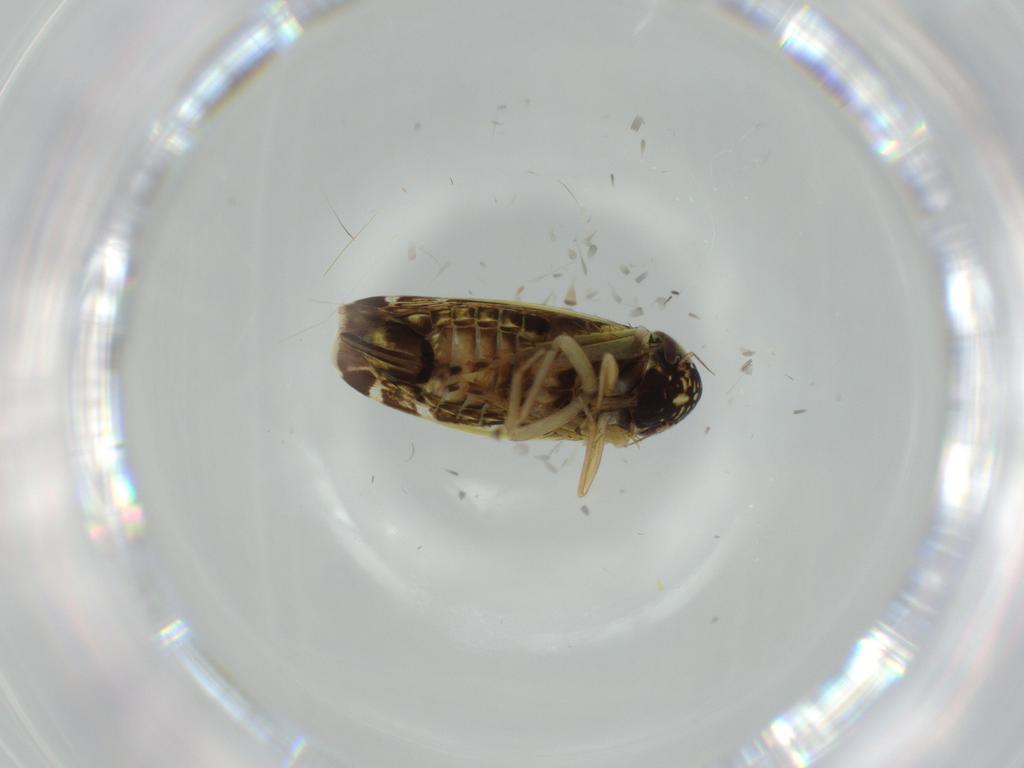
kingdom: Animalia
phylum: Arthropoda
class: Insecta
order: Hemiptera
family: Cicadellidae
